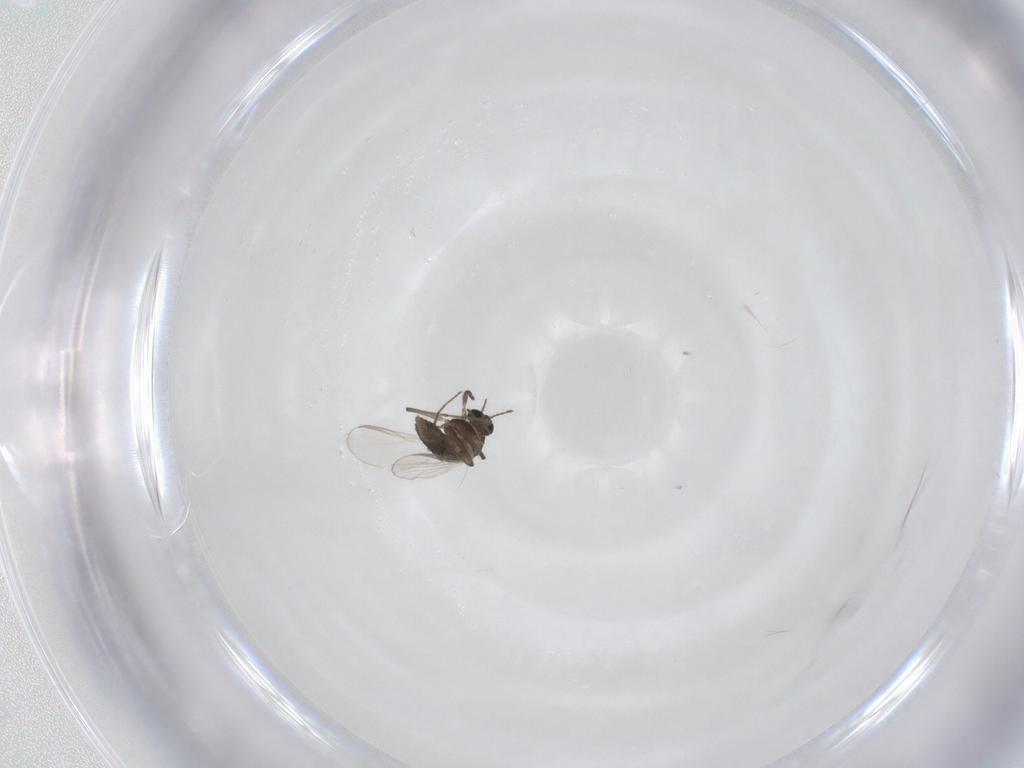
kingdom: Animalia
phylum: Arthropoda
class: Insecta
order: Diptera
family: Chironomidae
